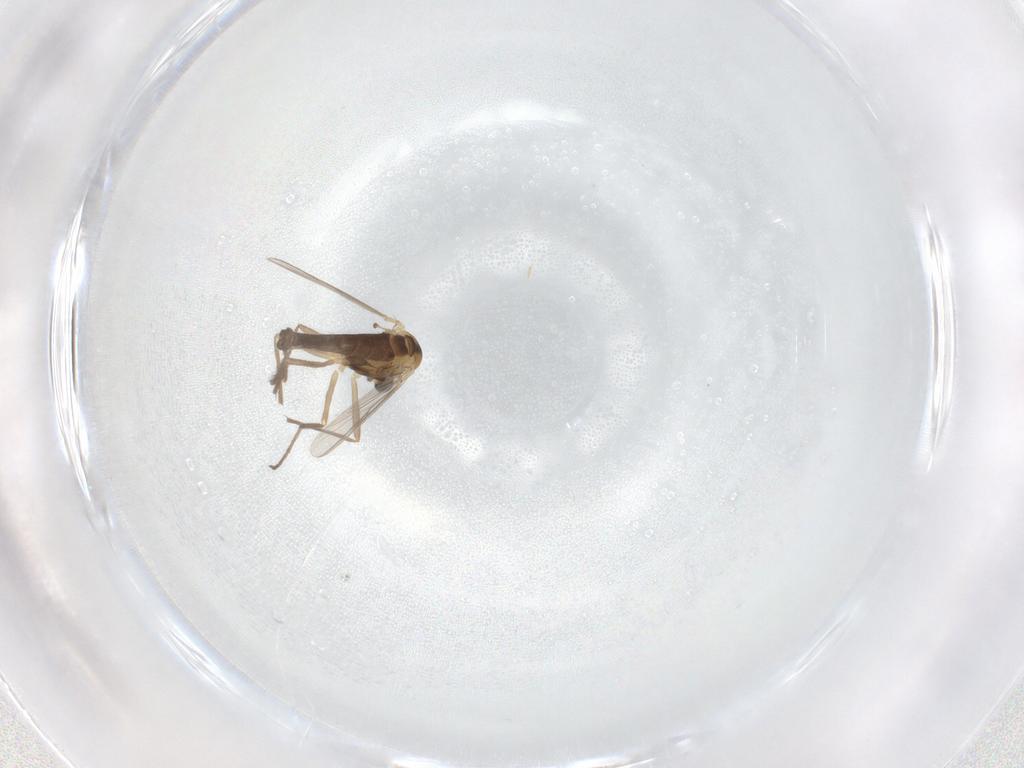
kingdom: Animalia
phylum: Arthropoda
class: Insecta
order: Diptera
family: Chironomidae
